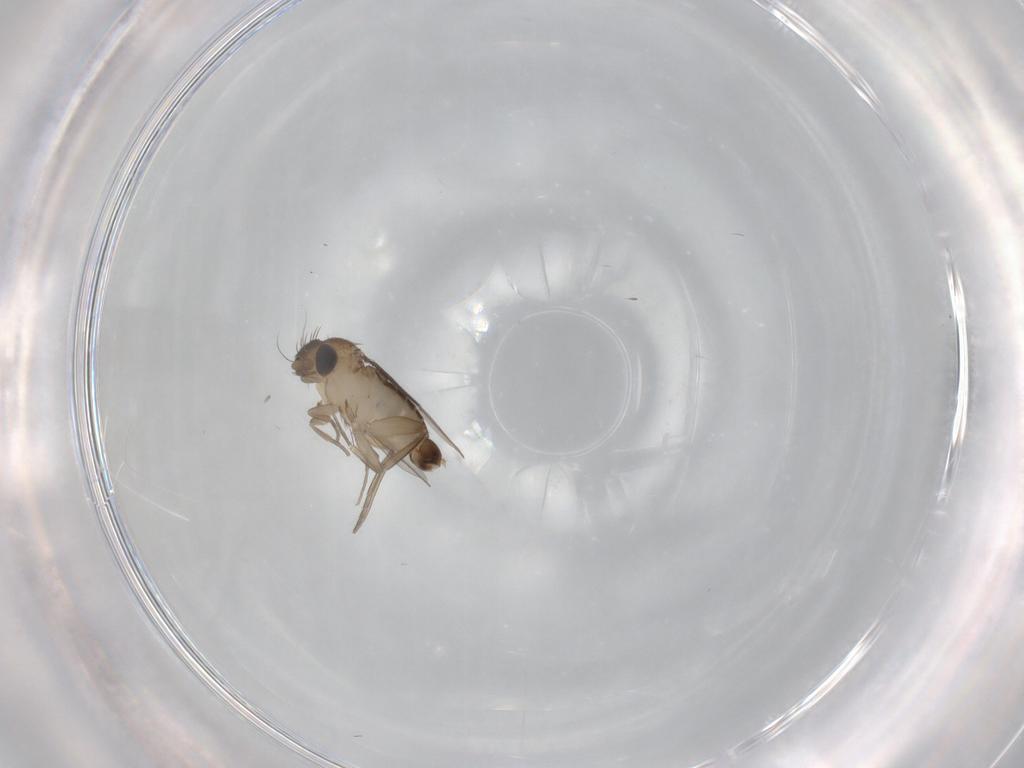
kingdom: Animalia
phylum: Arthropoda
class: Insecta
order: Diptera
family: Phoridae
